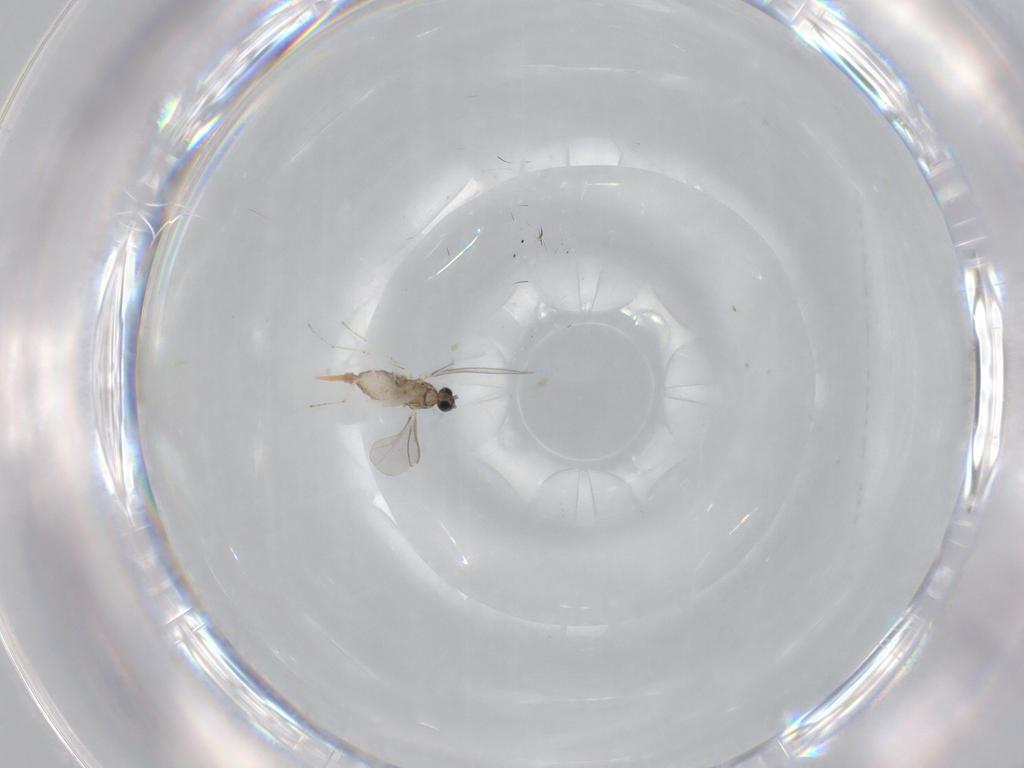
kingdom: Animalia
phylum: Arthropoda
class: Insecta
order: Diptera
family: Cecidomyiidae
